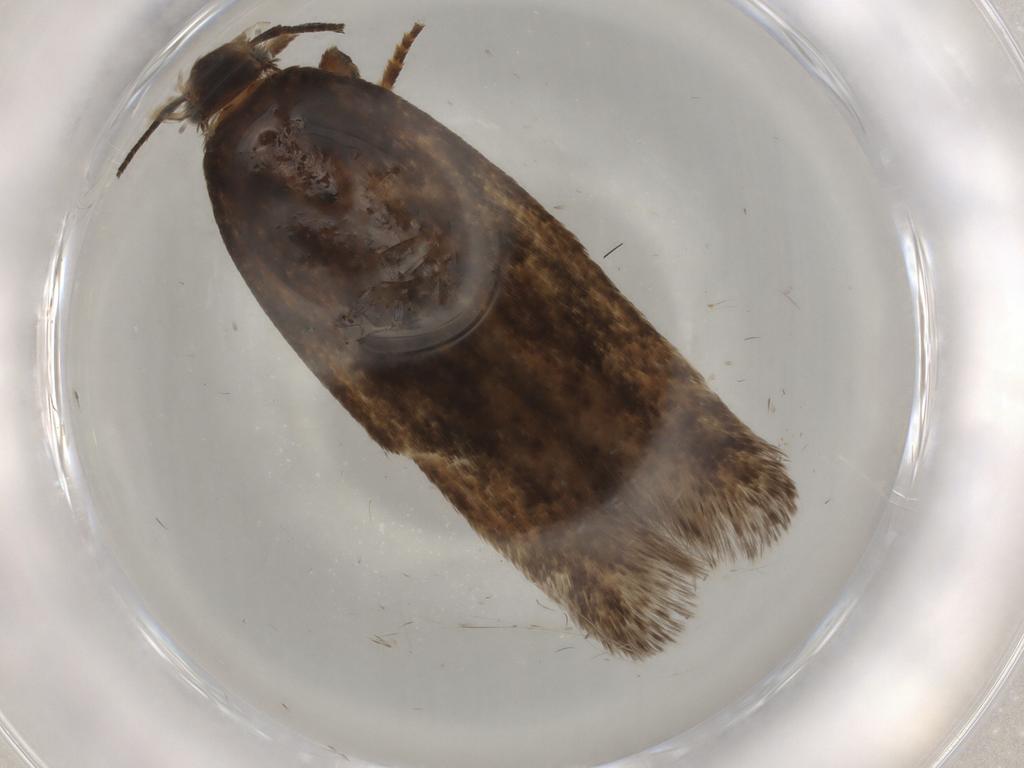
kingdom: Animalia
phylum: Arthropoda
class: Insecta
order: Lepidoptera
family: Gelechiidae
